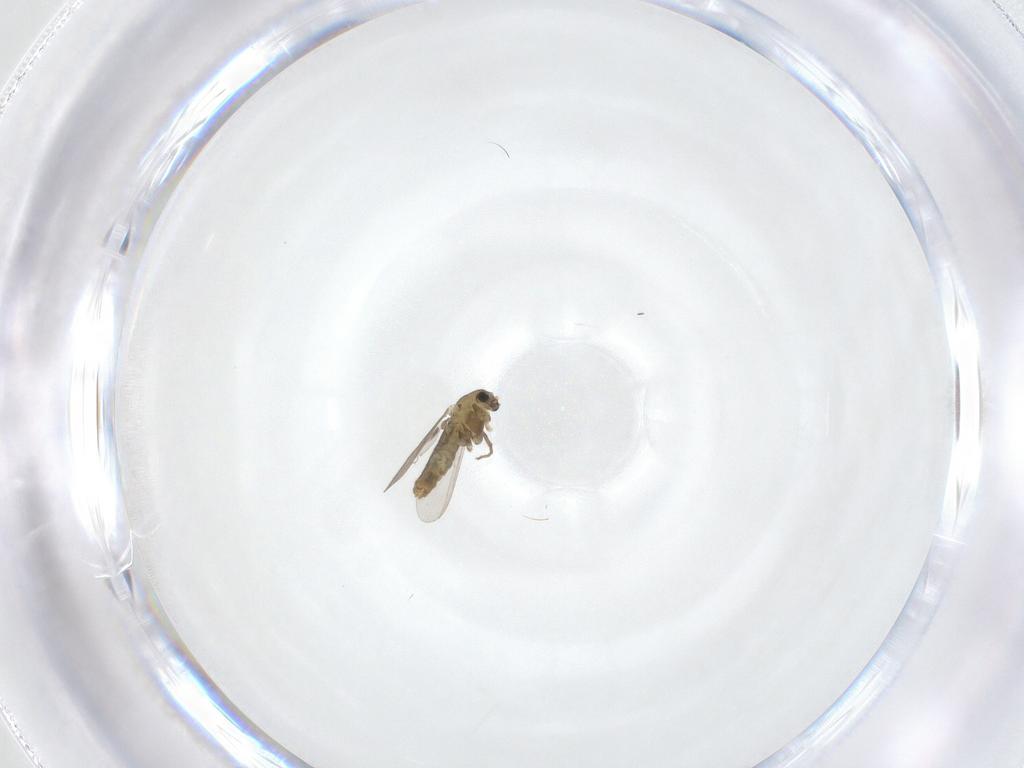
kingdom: Animalia
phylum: Arthropoda
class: Insecta
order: Diptera
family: Chironomidae
